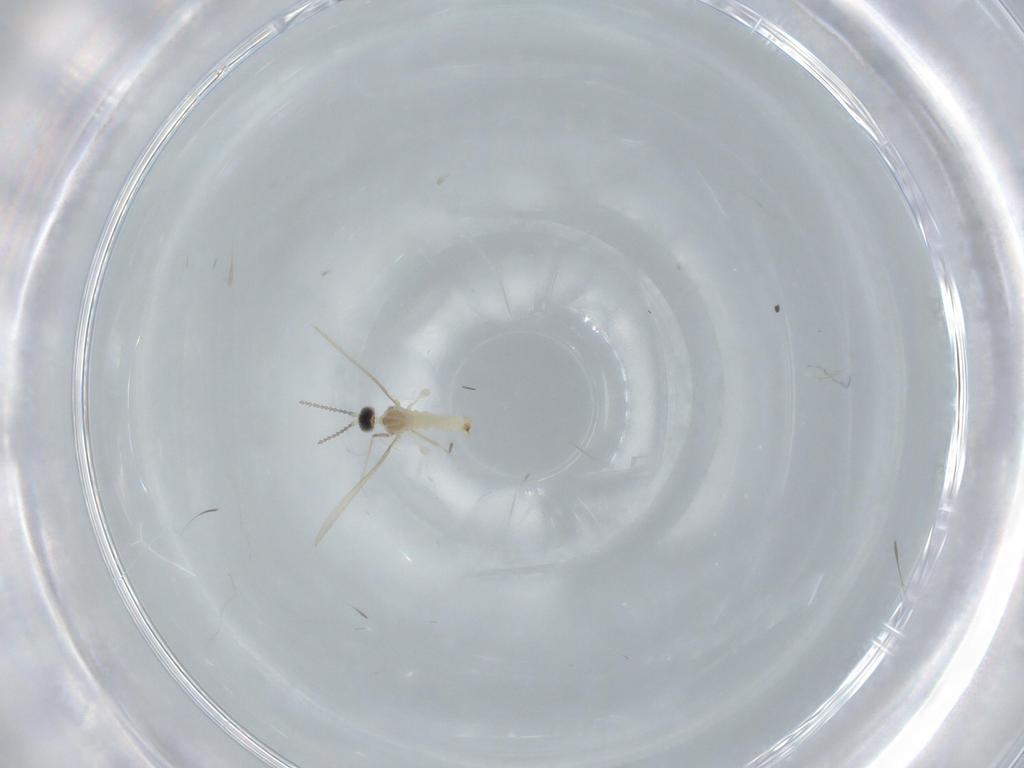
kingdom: Animalia
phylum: Arthropoda
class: Insecta
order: Diptera
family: Cecidomyiidae
